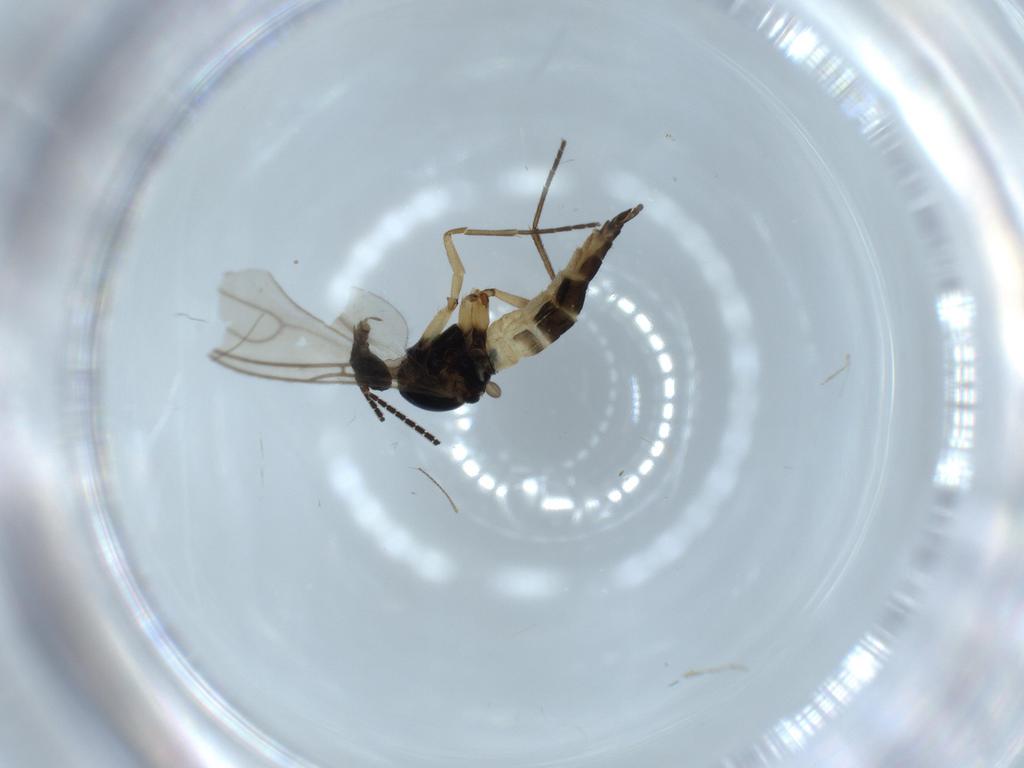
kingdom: Animalia
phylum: Arthropoda
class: Insecta
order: Diptera
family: Sciaridae
